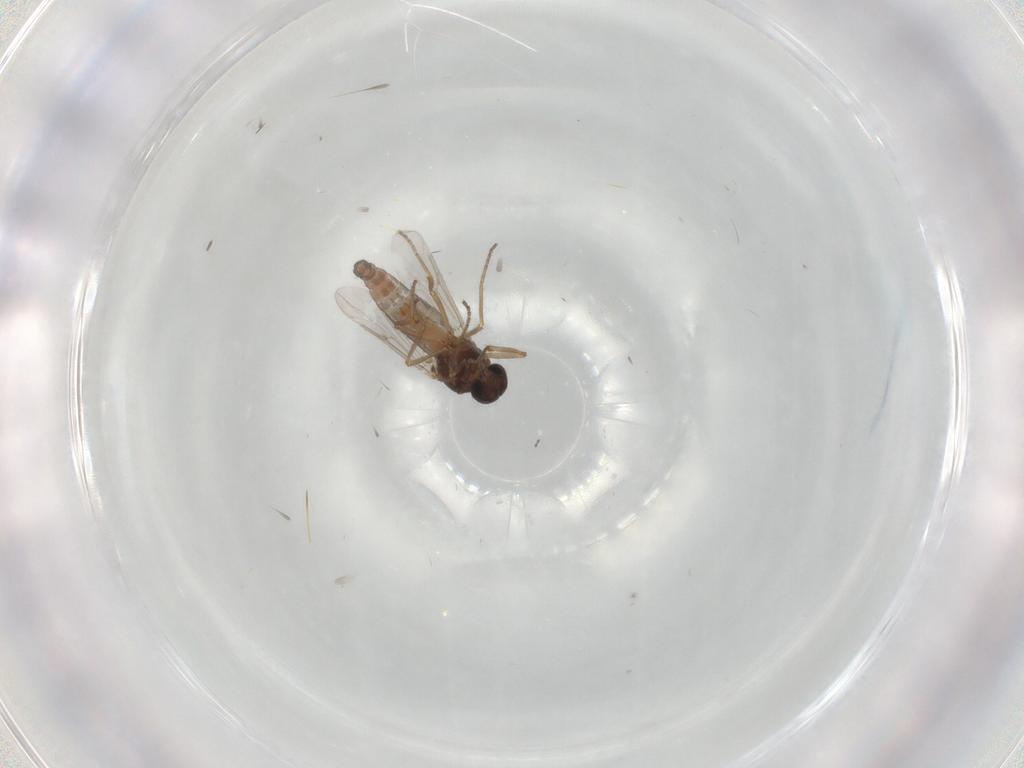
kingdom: Animalia
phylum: Arthropoda
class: Insecta
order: Diptera
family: Ceratopogonidae
